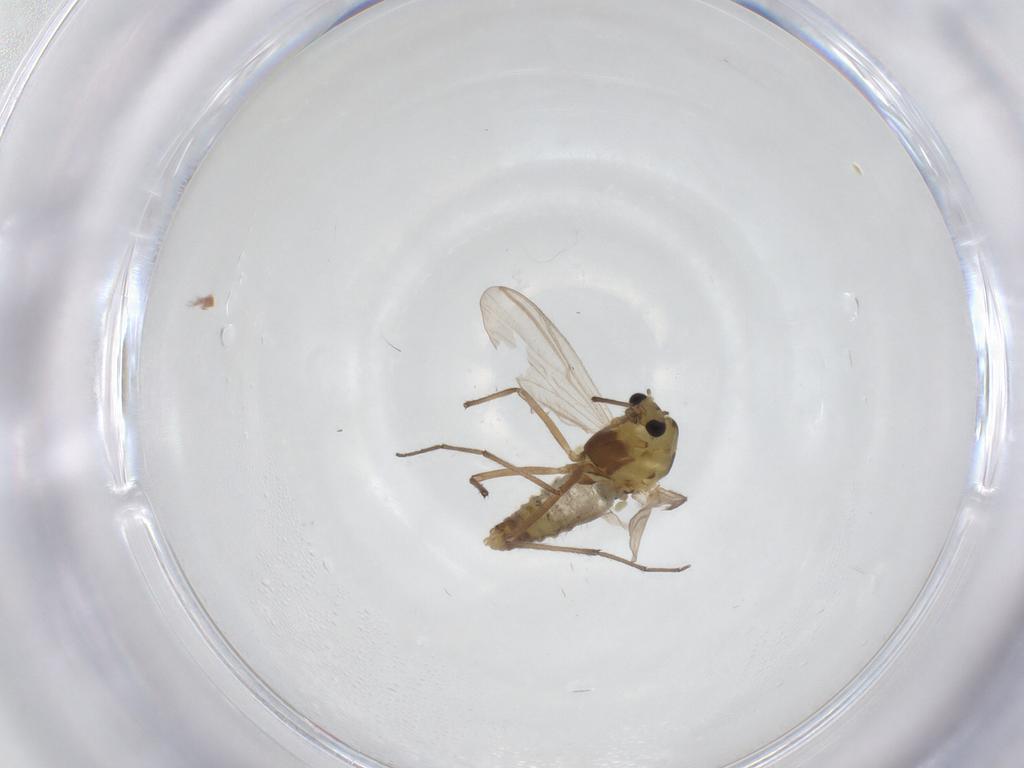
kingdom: Animalia
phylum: Arthropoda
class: Insecta
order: Diptera
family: Chironomidae
